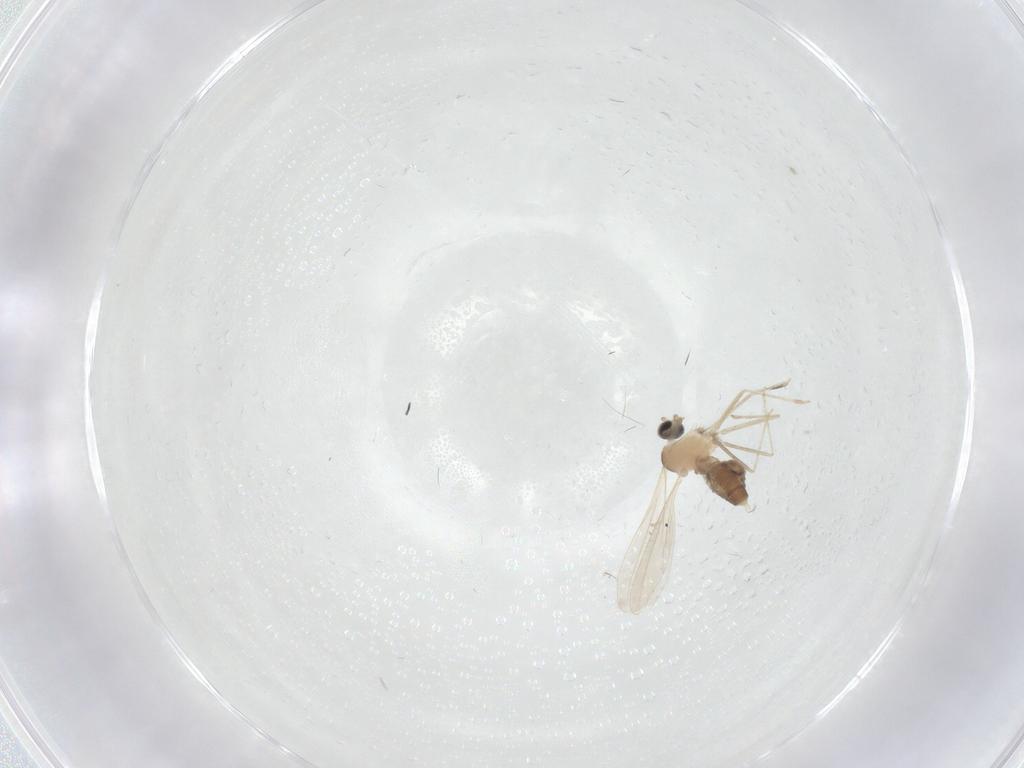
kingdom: Animalia
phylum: Arthropoda
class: Insecta
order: Diptera
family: Cecidomyiidae
